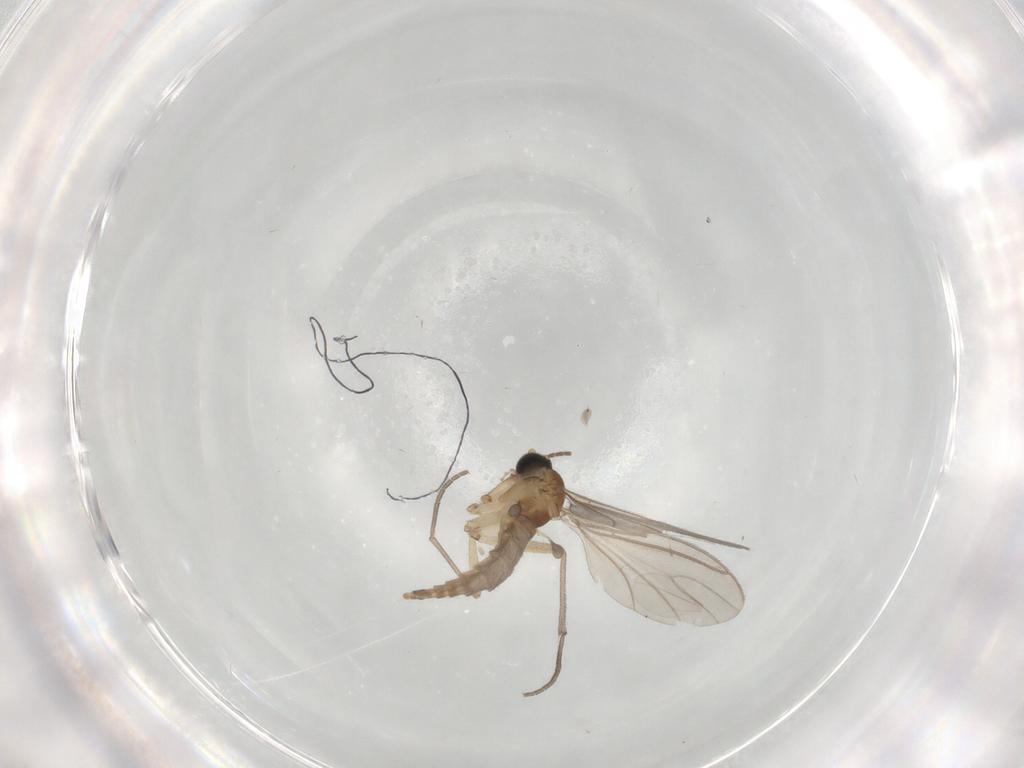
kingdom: Animalia
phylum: Arthropoda
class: Insecta
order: Diptera
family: Sciaridae
